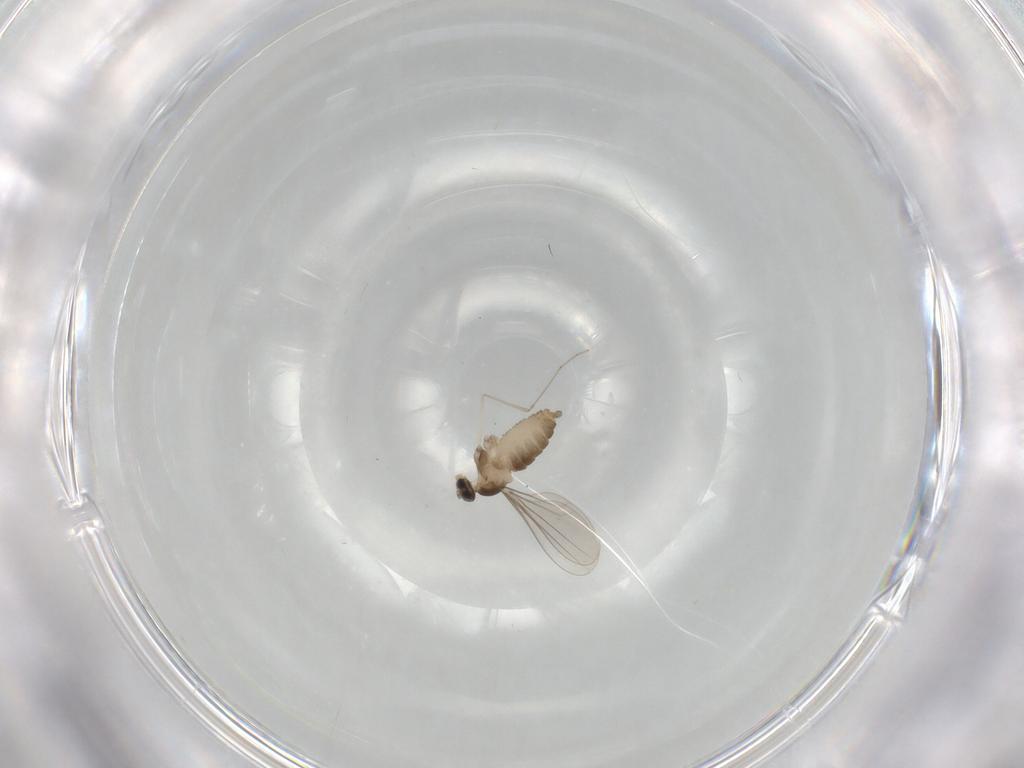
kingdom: Animalia
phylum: Arthropoda
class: Insecta
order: Diptera
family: Cecidomyiidae
